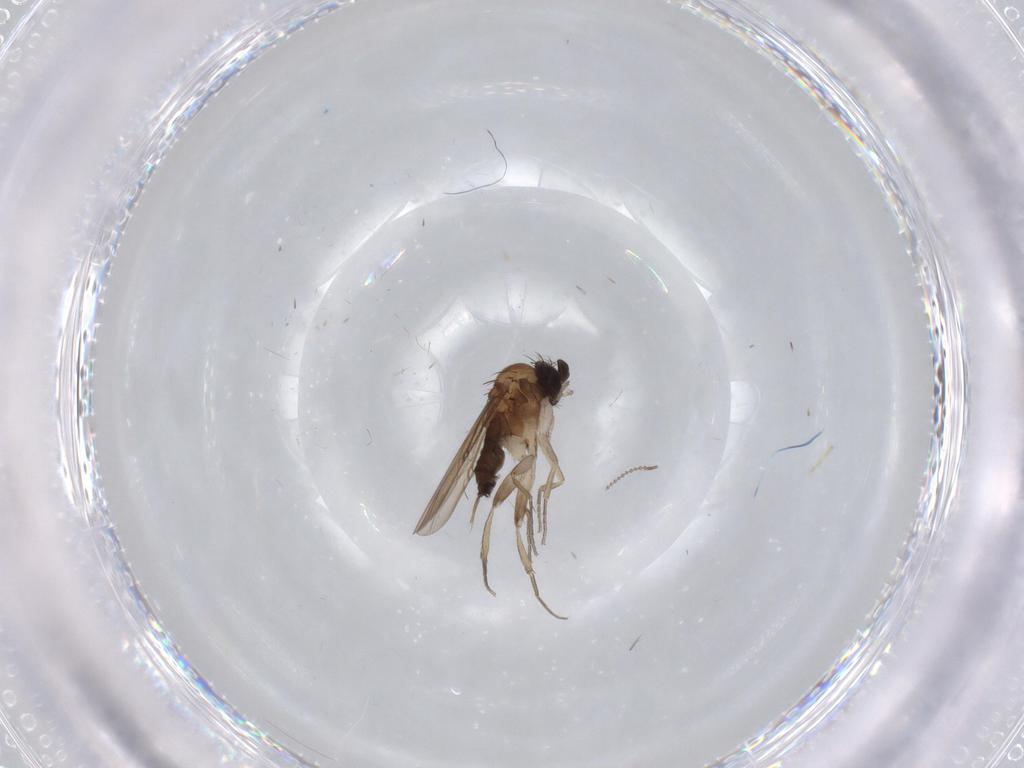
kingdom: Animalia
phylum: Arthropoda
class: Insecta
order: Diptera
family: Phoridae
